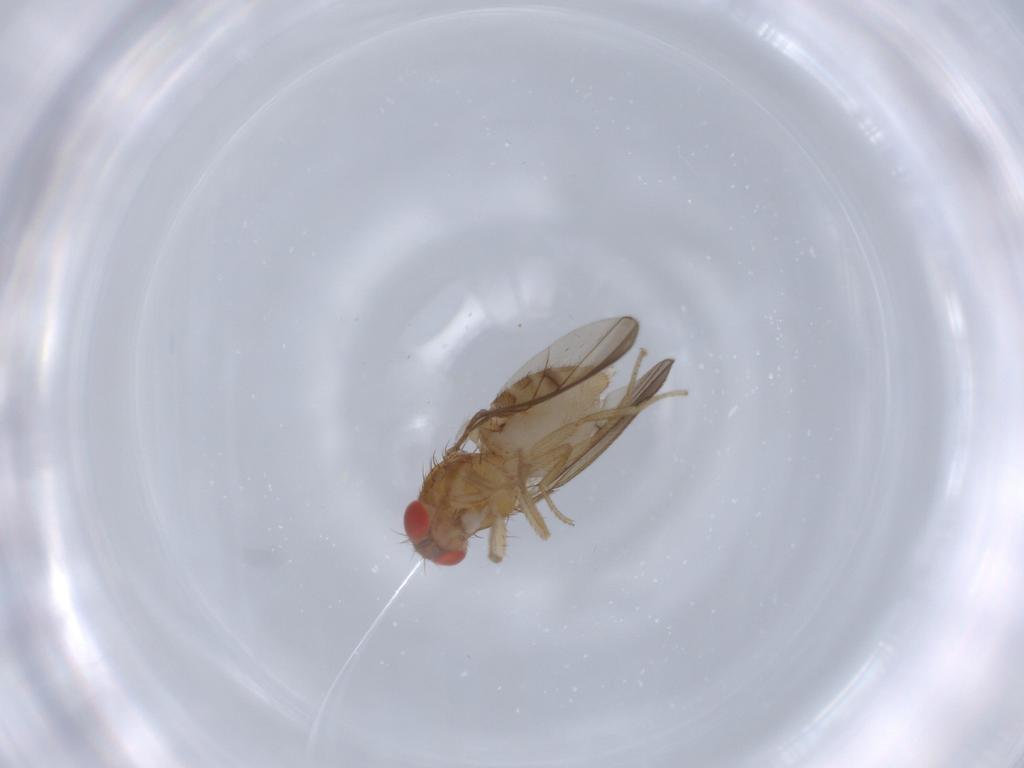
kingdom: Animalia
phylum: Arthropoda
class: Insecta
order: Diptera
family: Drosophilidae
